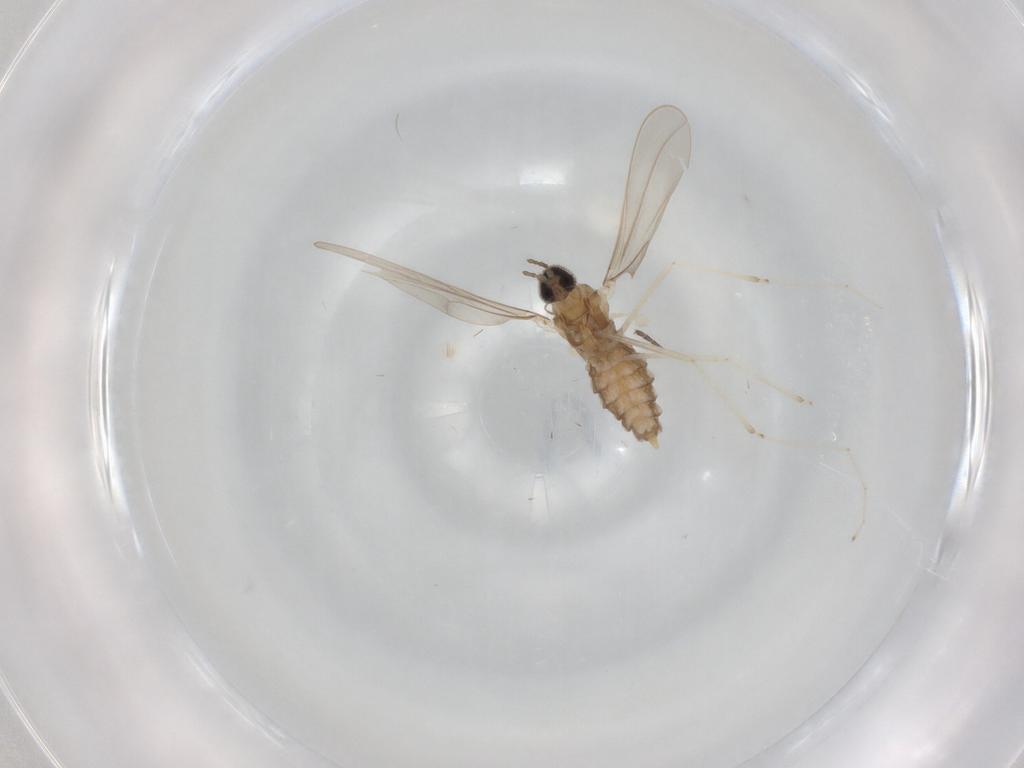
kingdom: Animalia
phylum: Arthropoda
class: Insecta
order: Diptera
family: Cecidomyiidae
